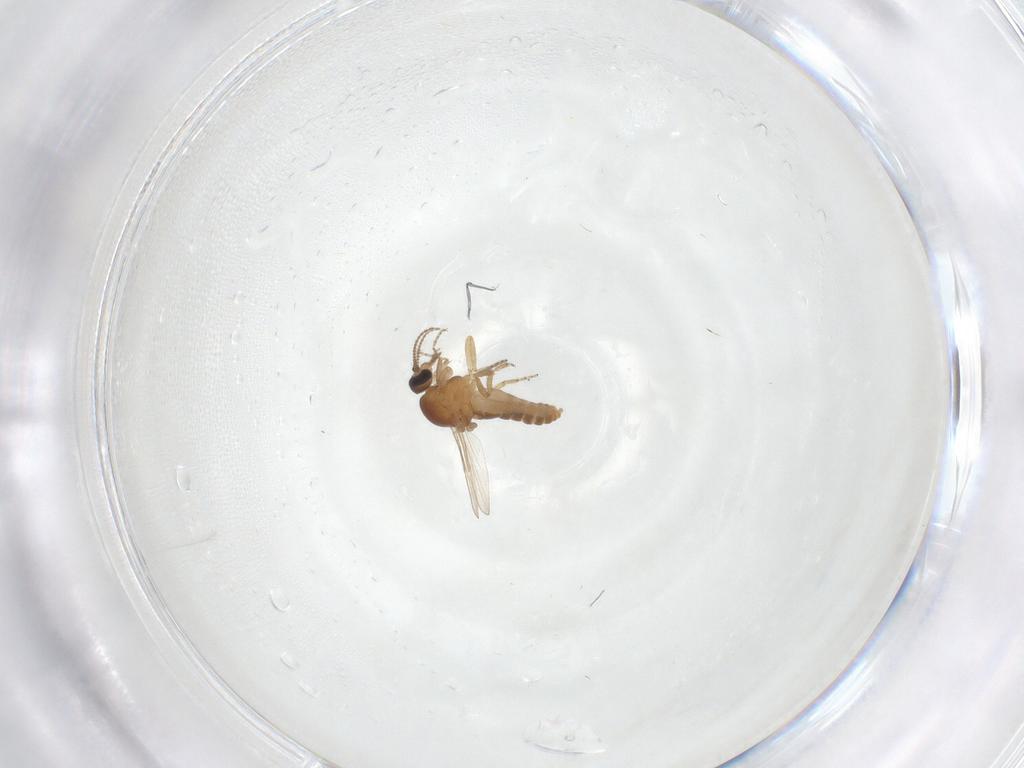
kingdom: Animalia
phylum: Arthropoda
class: Insecta
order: Diptera
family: Ceratopogonidae
